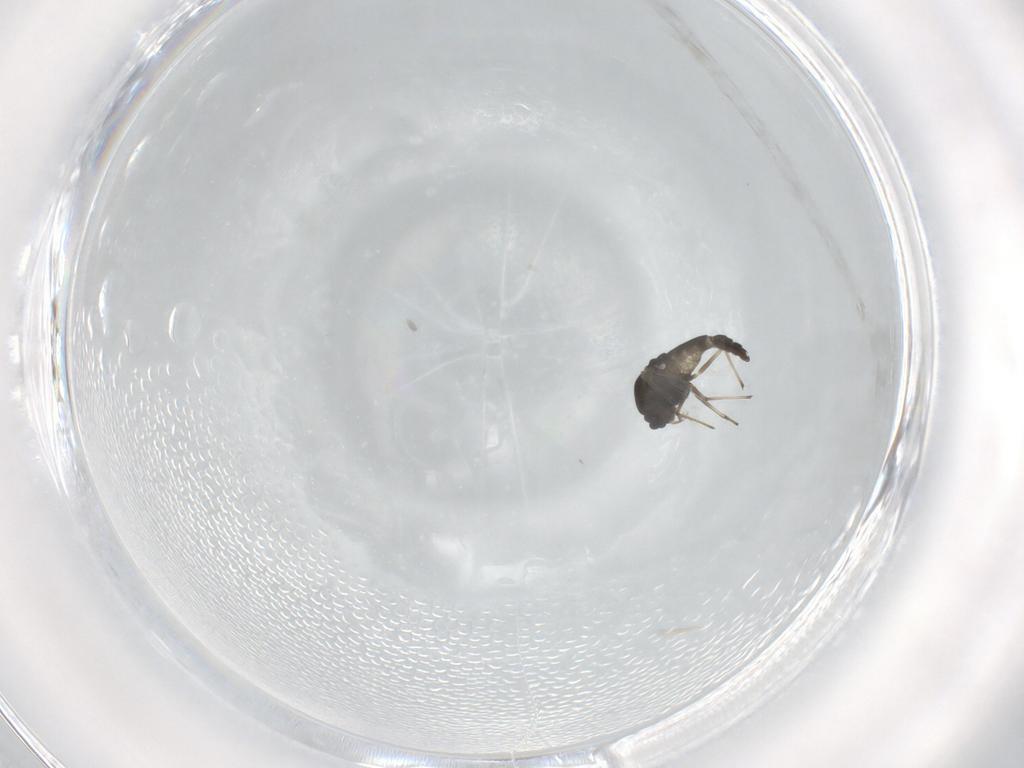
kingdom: Animalia
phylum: Arthropoda
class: Insecta
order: Diptera
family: Sciaridae
